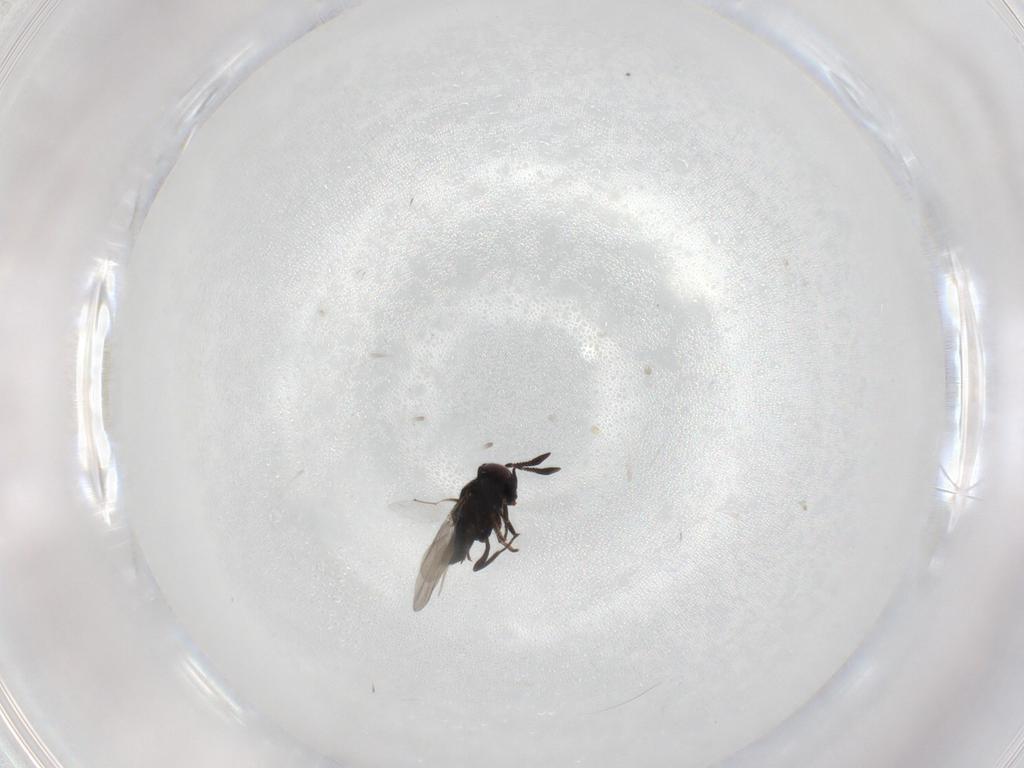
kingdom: Animalia
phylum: Arthropoda
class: Insecta
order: Hymenoptera
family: Encyrtidae
